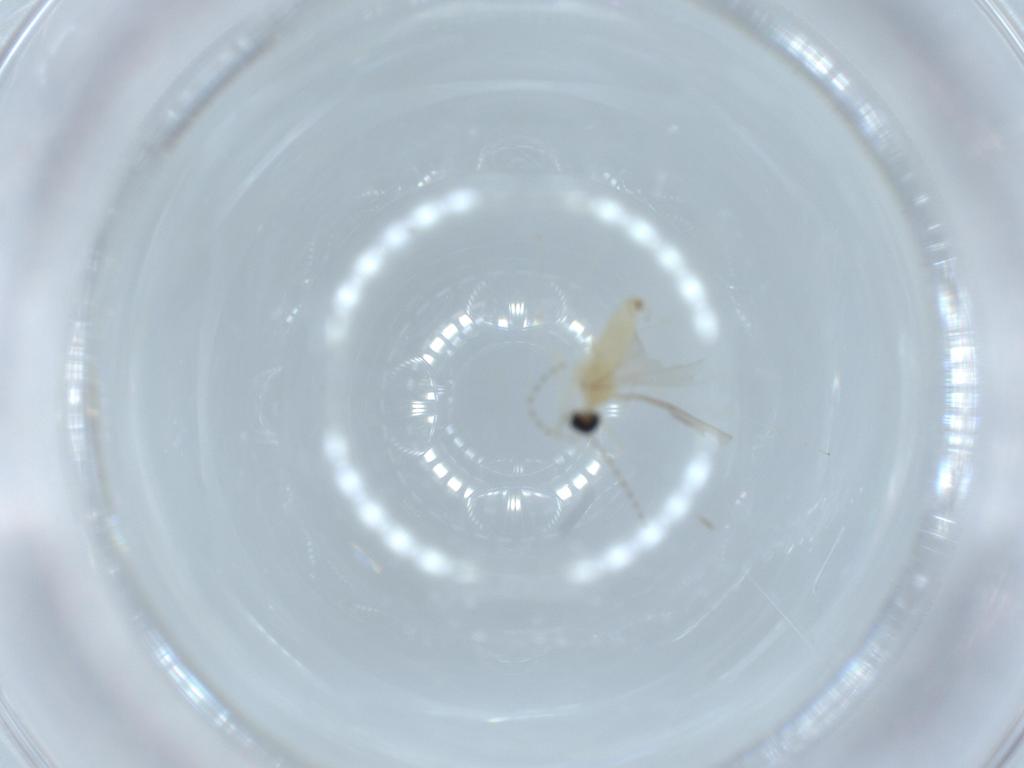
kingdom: Animalia
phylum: Arthropoda
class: Insecta
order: Diptera
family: Cecidomyiidae
